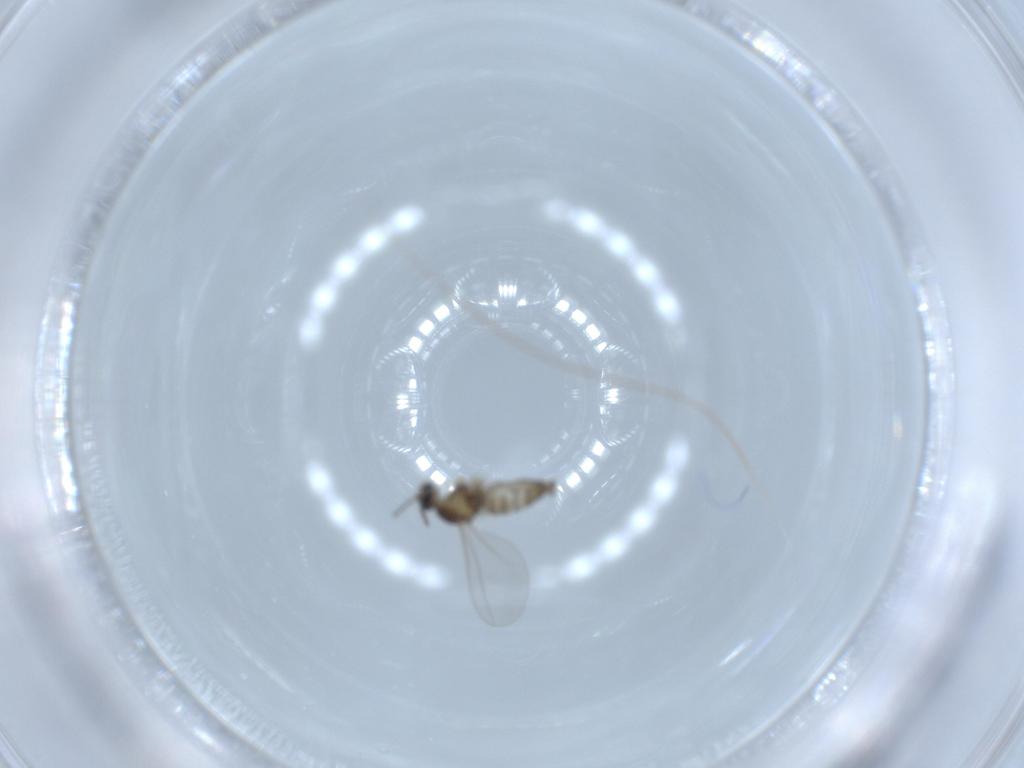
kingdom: Animalia
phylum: Arthropoda
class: Insecta
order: Diptera
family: Cecidomyiidae
